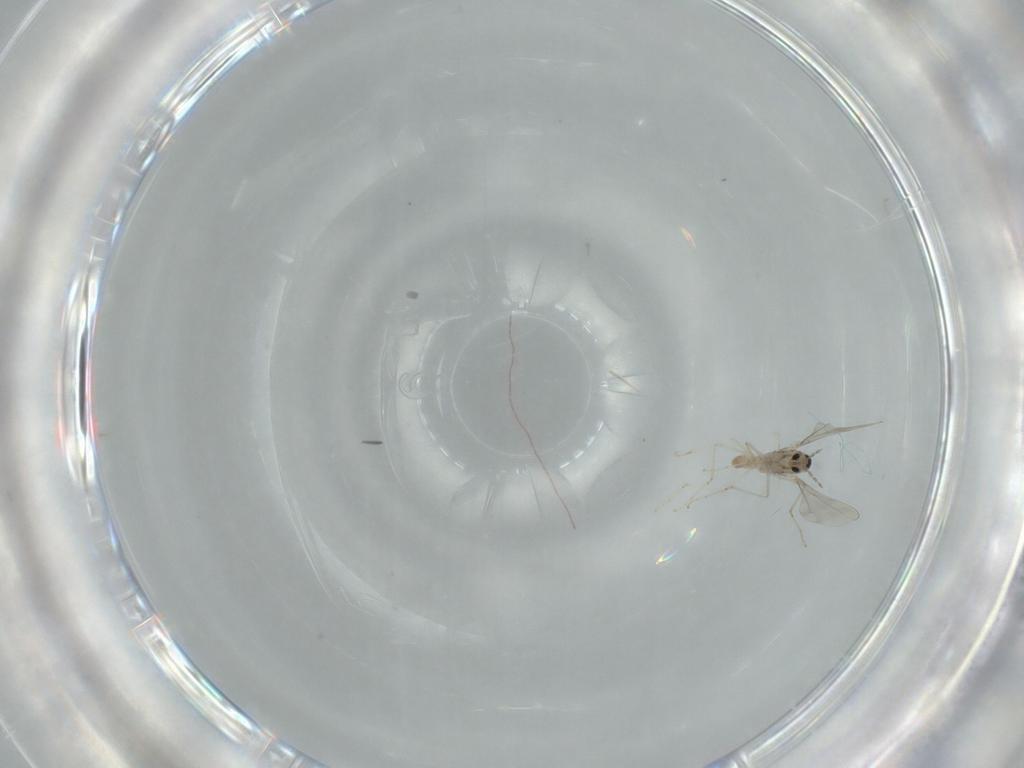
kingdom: Animalia
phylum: Arthropoda
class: Insecta
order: Diptera
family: Cecidomyiidae
